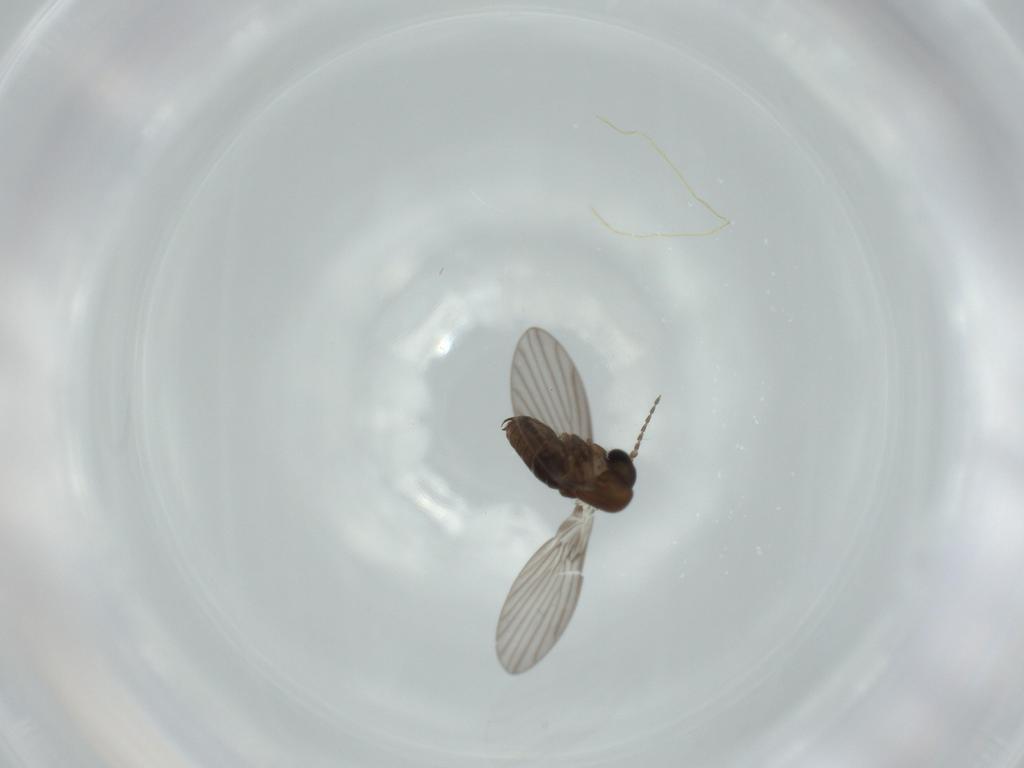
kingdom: Animalia
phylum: Arthropoda
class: Insecta
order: Diptera
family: Psychodidae
